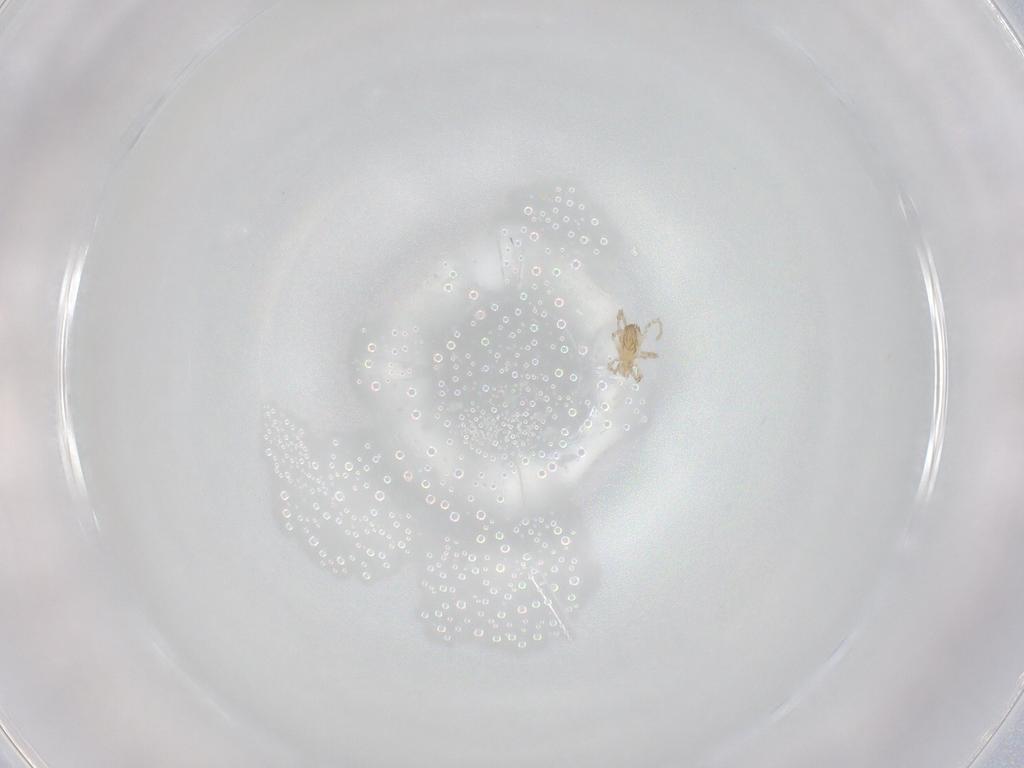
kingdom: Animalia
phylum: Arthropoda
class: Arachnida
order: Trombidiformes
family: Erythraeidae
